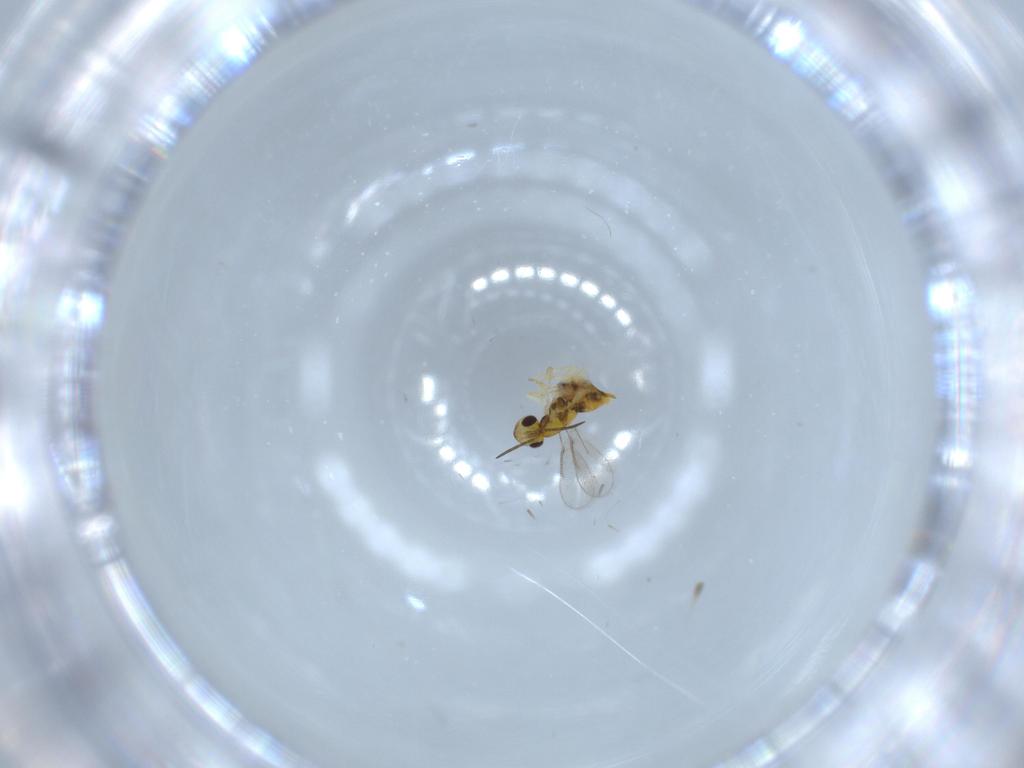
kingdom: Animalia
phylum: Arthropoda
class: Insecta
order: Hymenoptera
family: Aphelinidae
